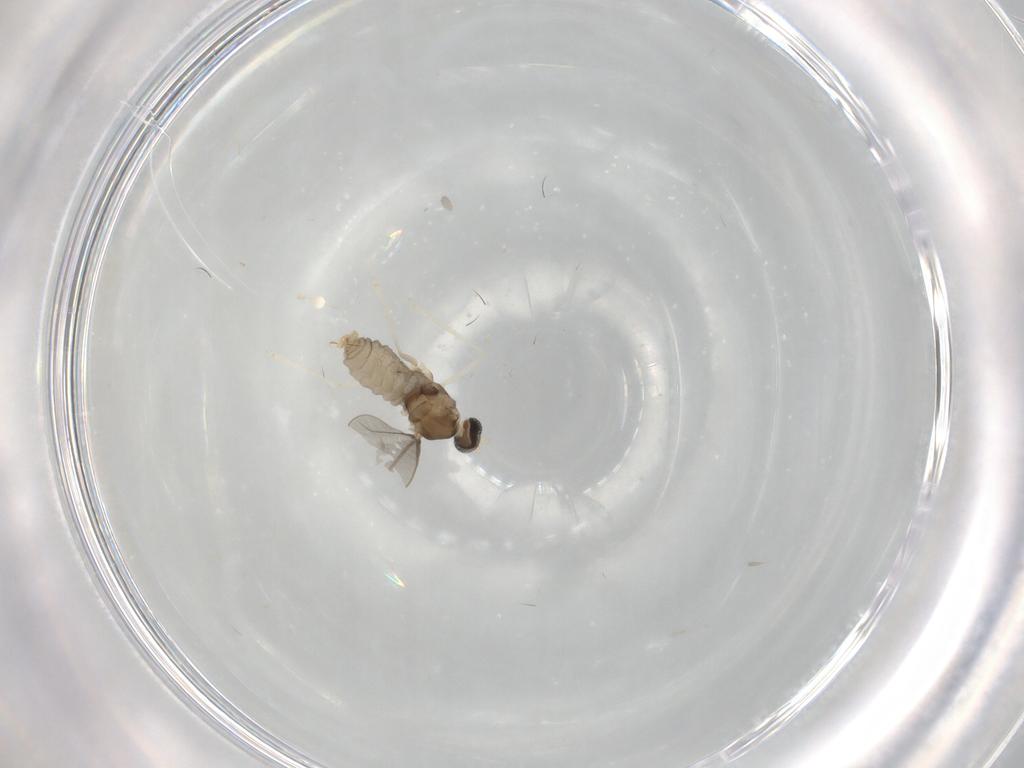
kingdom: Animalia
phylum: Arthropoda
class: Insecta
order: Diptera
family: Cecidomyiidae
